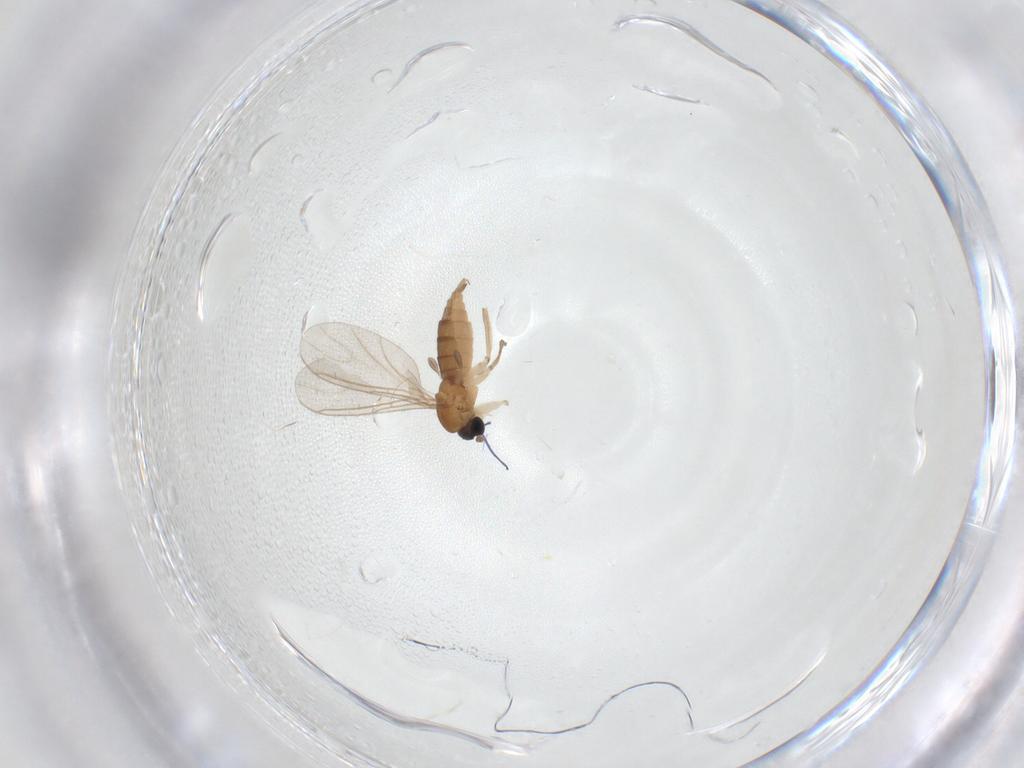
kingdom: Animalia
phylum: Arthropoda
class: Insecta
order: Diptera
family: Sciaridae
